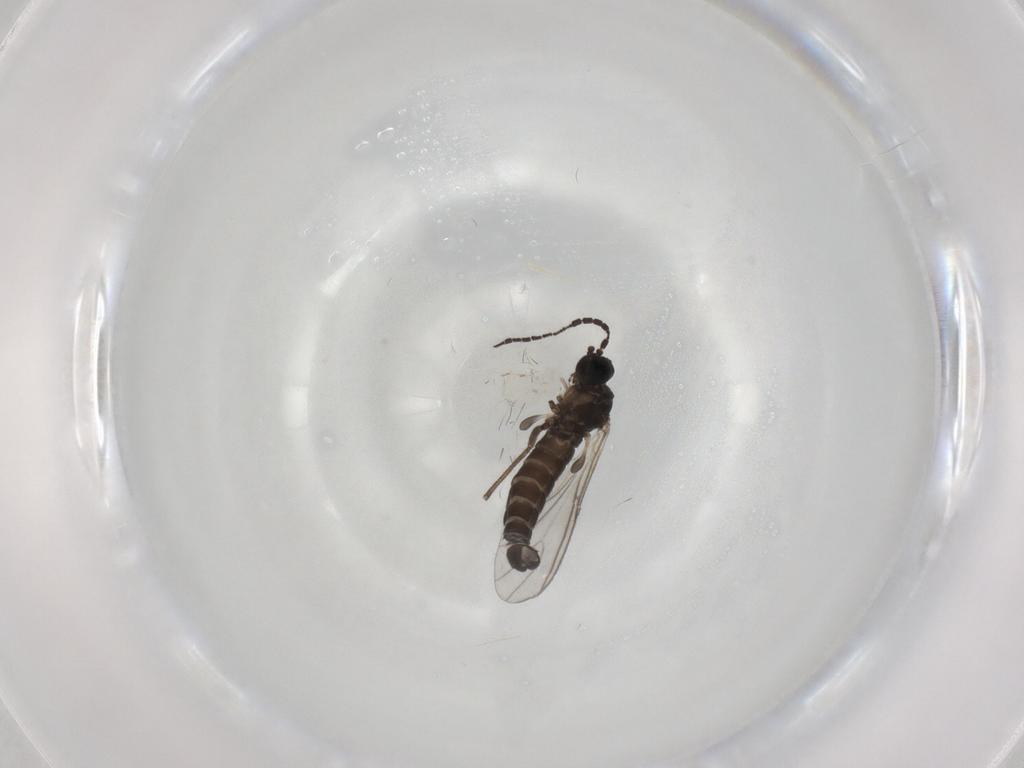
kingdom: Animalia
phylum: Arthropoda
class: Insecta
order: Diptera
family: Sciaridae
